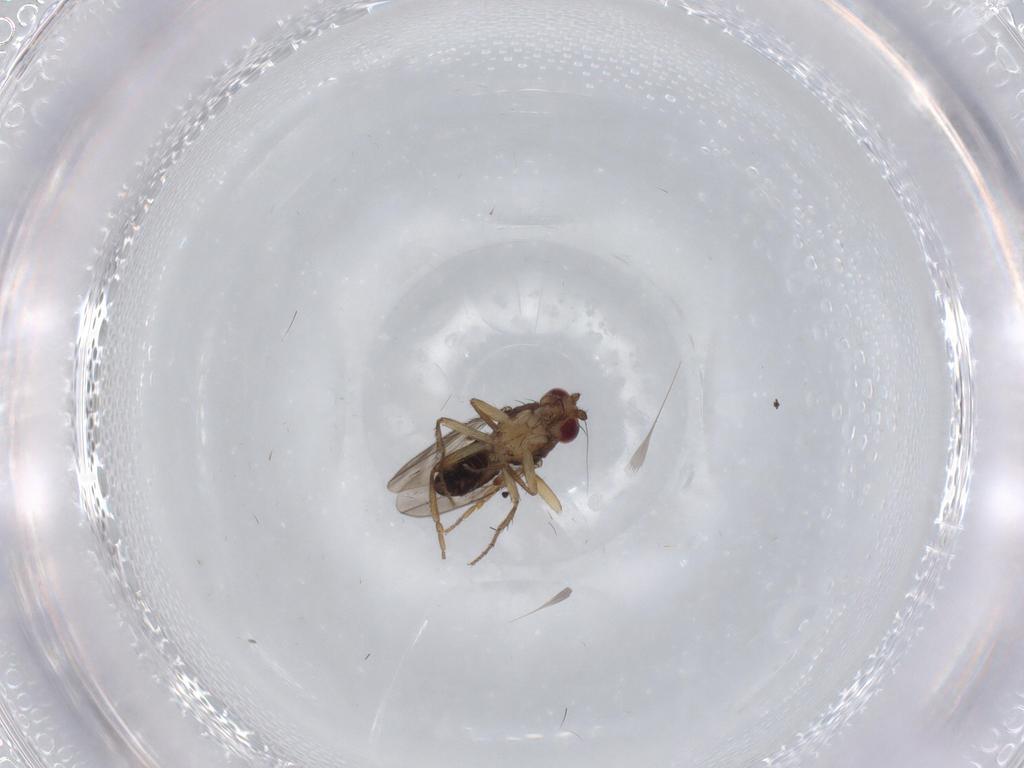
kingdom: Animalia
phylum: Arthropoda
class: Insecta
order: Diptera
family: Sphaeroceridae
